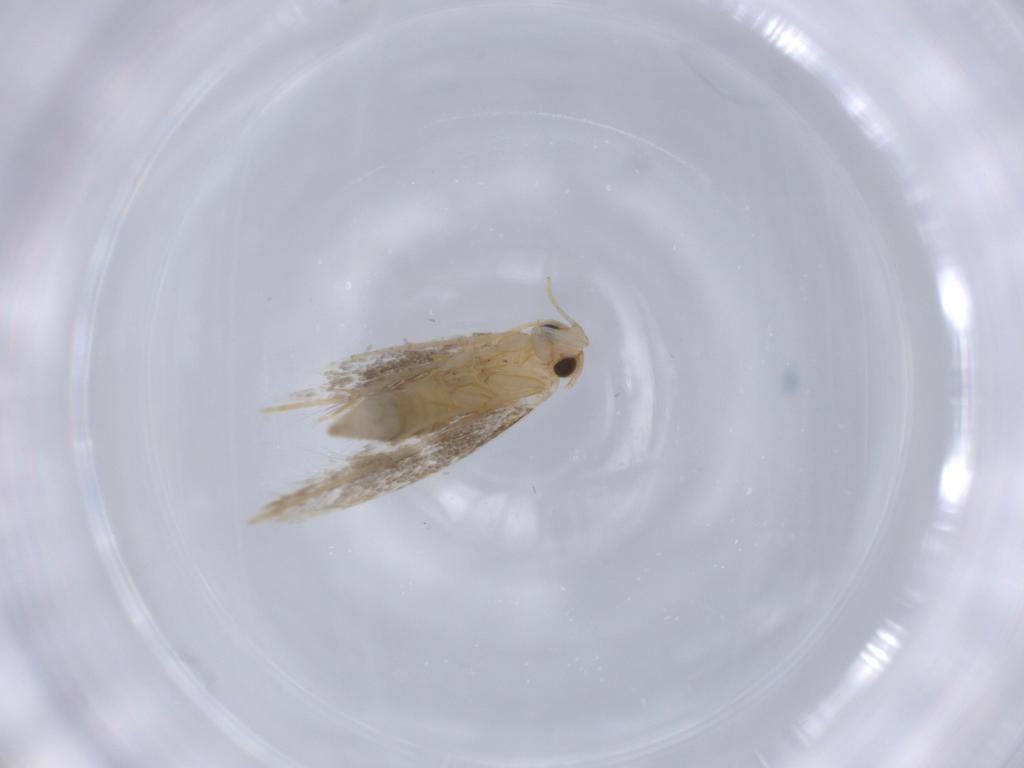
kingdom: Animalia
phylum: Arthropoda
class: Insecta
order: Lepidoptera
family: Tineidae
